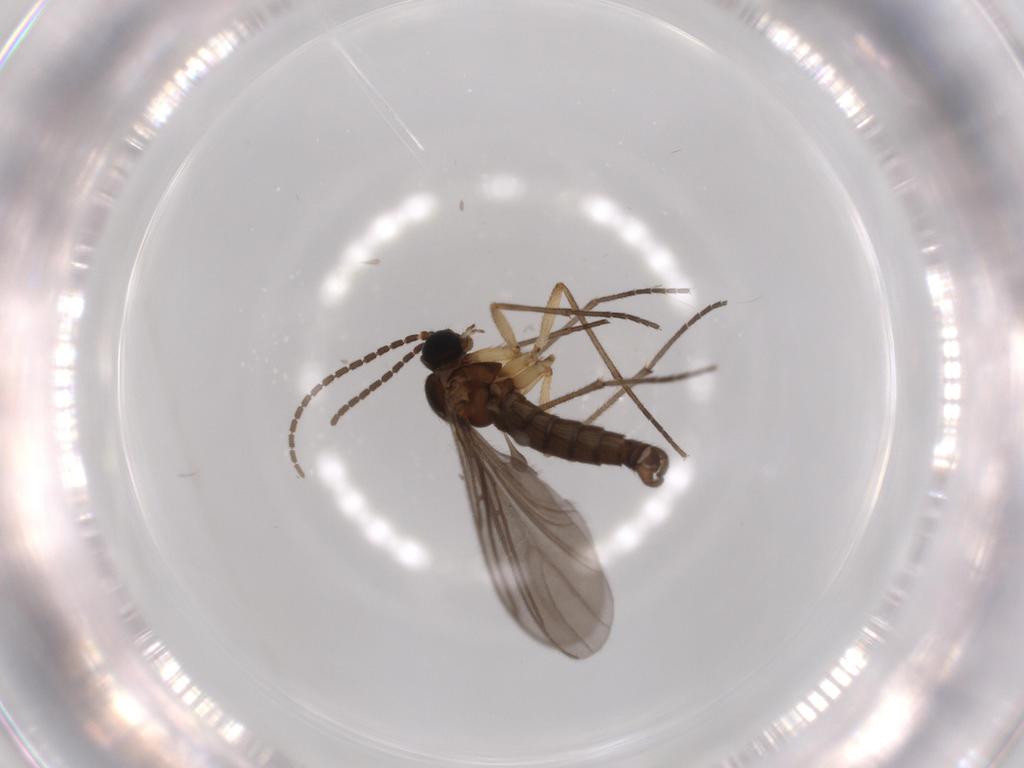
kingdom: Animalia
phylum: Arthropoda
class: Insecta
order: Diptera
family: Sciaridae
